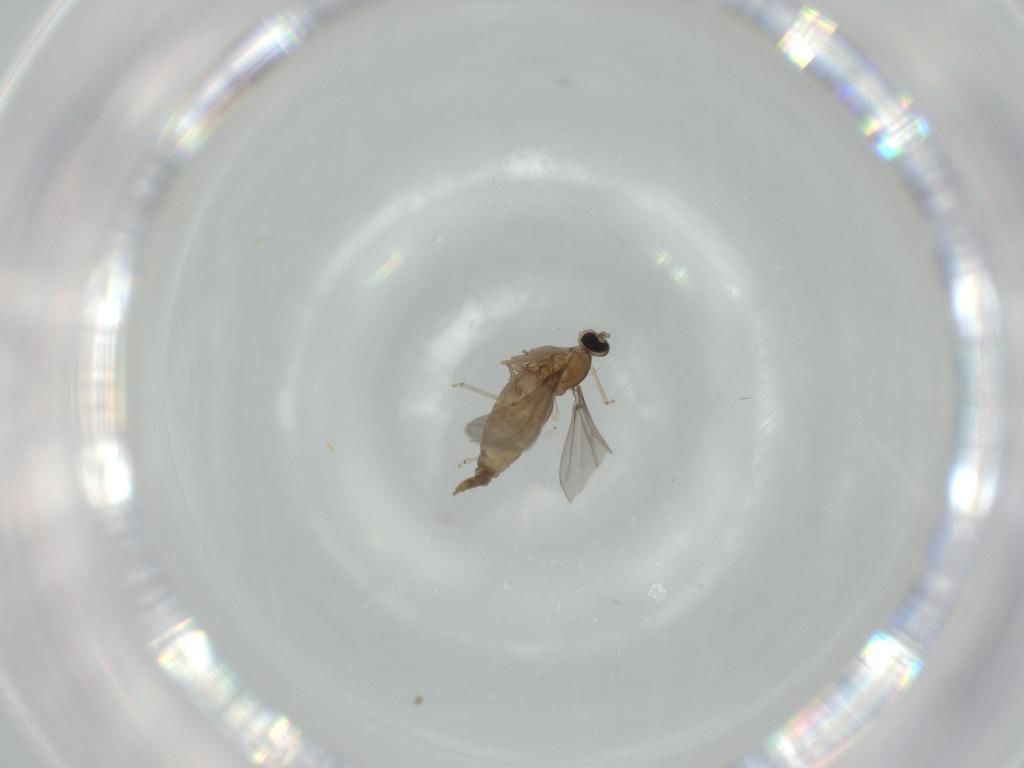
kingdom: Animalia
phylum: Arthropoda
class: Insecta
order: Diptera
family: Cecidomyiidae
